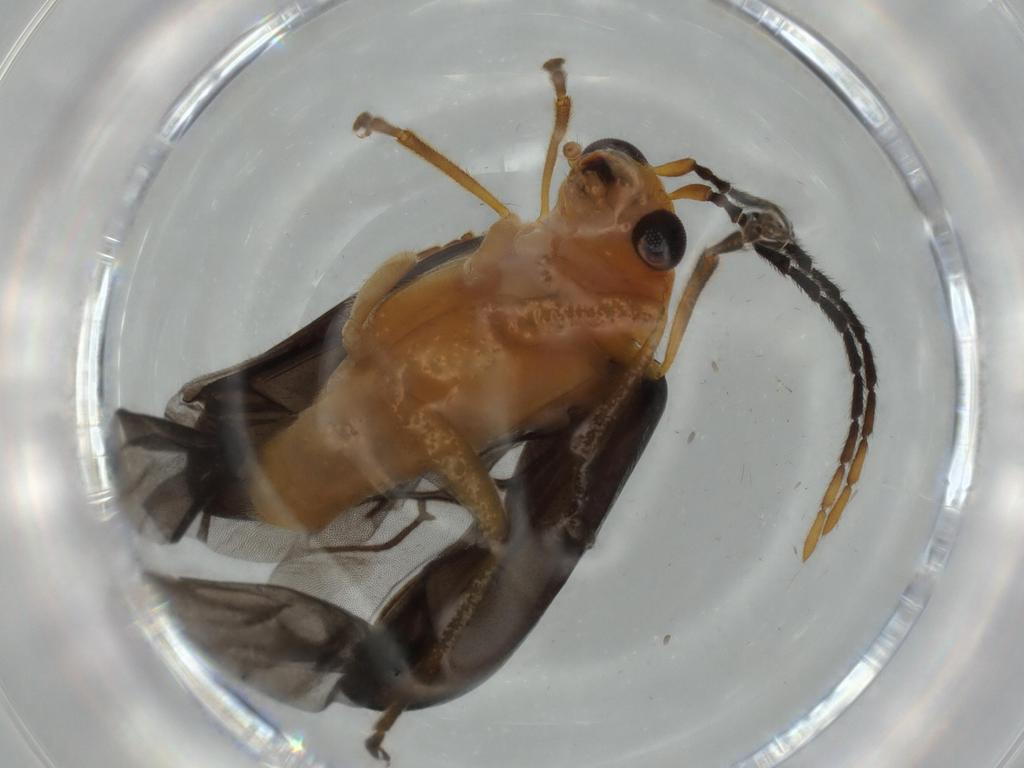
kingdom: Animalia
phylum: Arthropoda
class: Insecta
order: Coleoptera
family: Chrysomelidae
